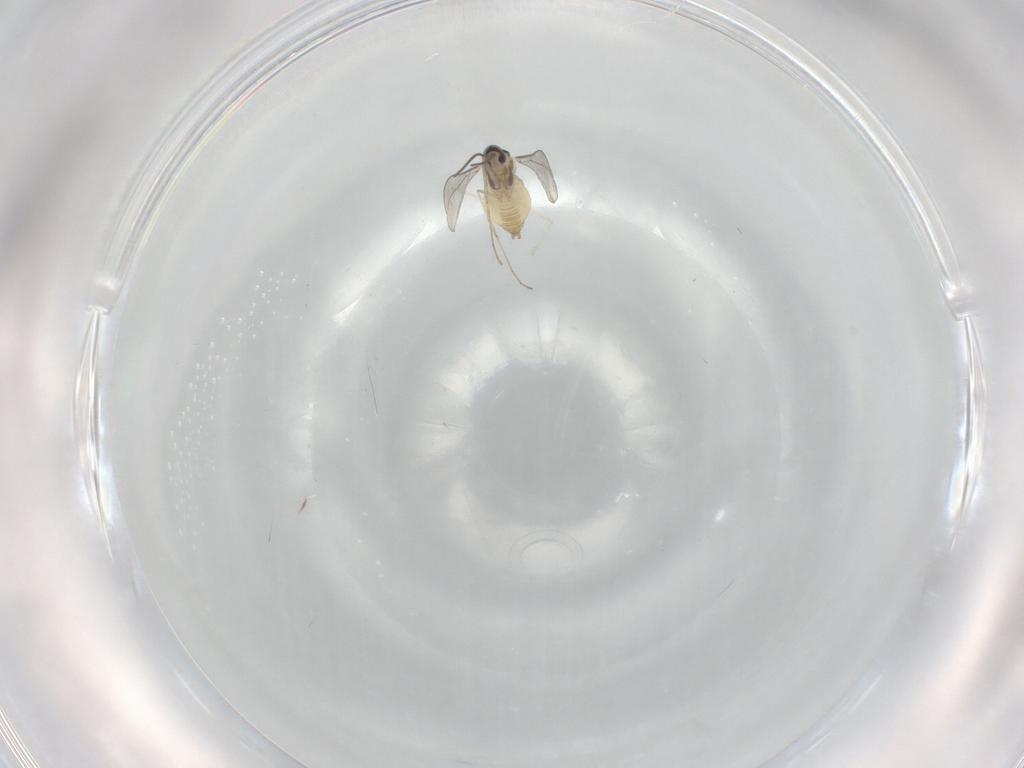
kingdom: Animalia
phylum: Arthropoda
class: Insecta
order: Diptera
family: Cecidomyiidae
